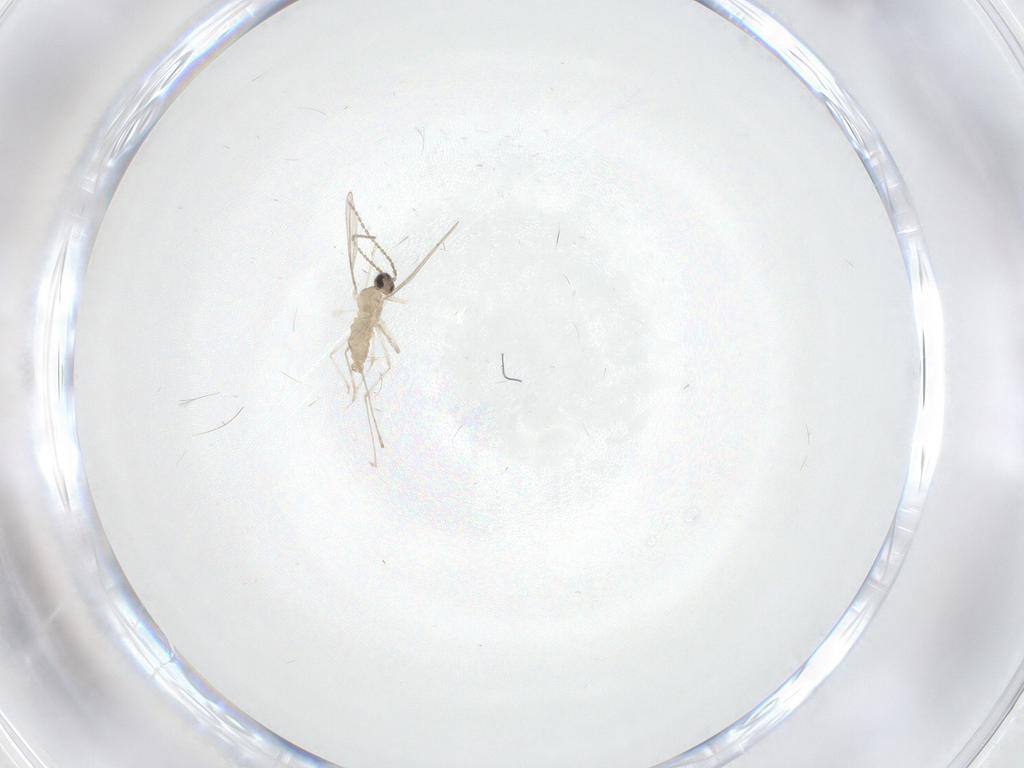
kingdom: Animalia
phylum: Arthropoda
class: Insecta
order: Diptera
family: Cecidomyiidae
